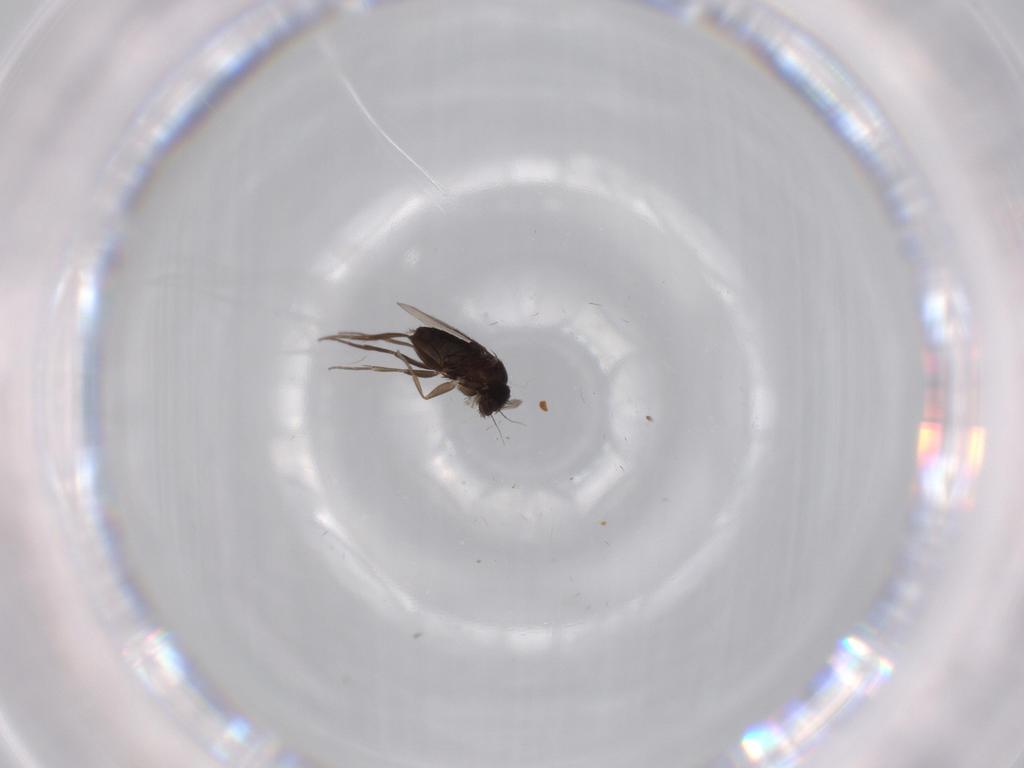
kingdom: Animalia
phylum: Arthropoda
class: Insecta
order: Diptera
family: Phoridae
